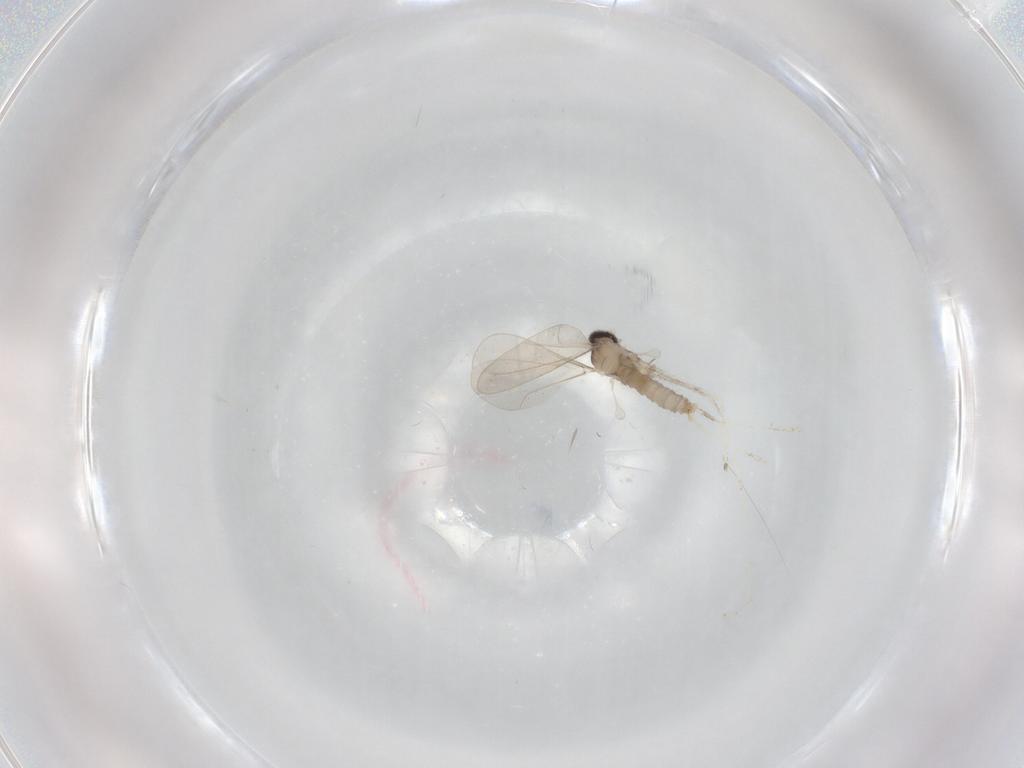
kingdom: Animalia
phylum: Arthropoda
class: Insecta
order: Diptera
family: Cecidomyiidae
